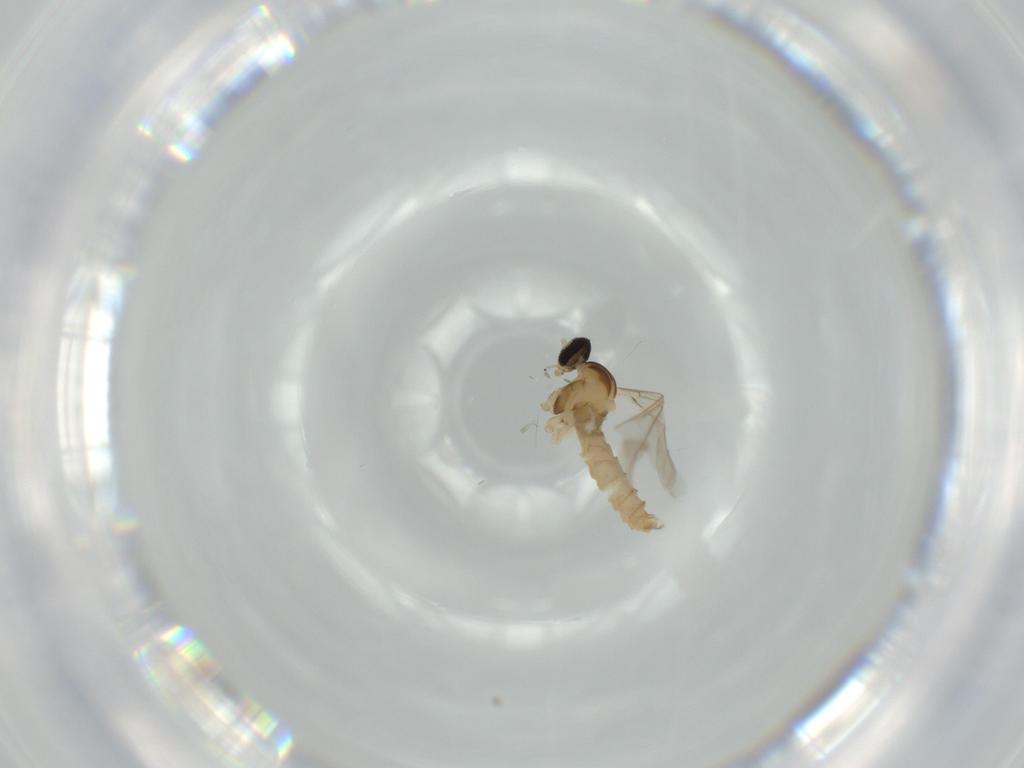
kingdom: Animalia
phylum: Arthropoda
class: Insecta
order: Diptera
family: Cecidomyiidae
